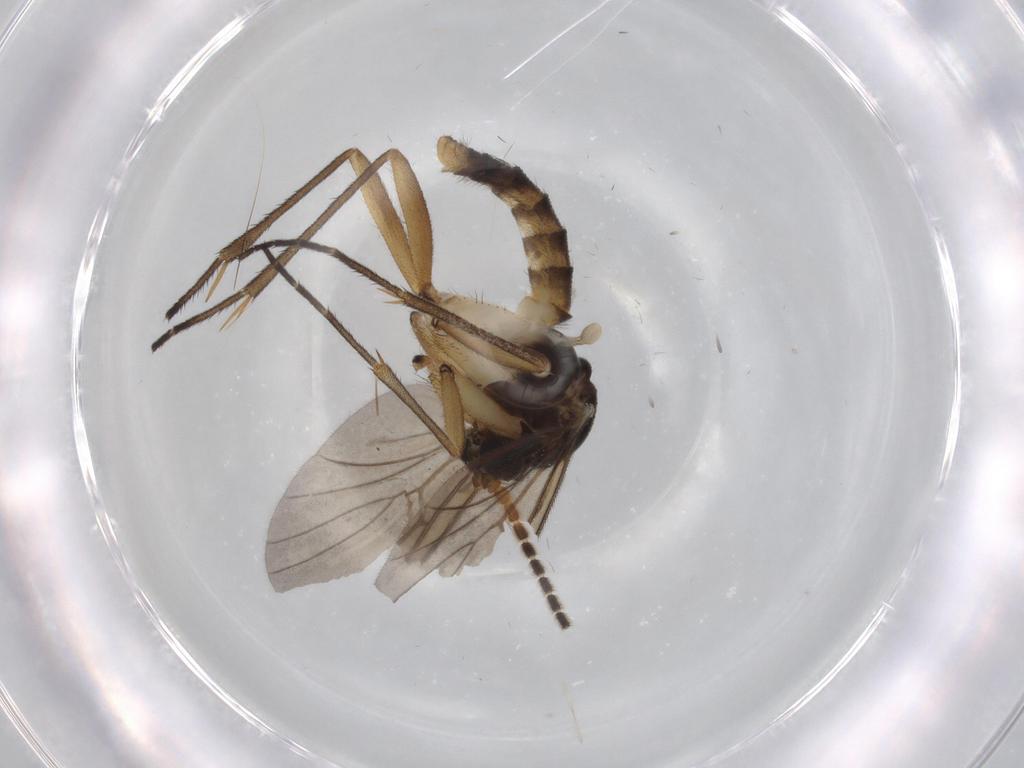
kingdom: Animalia
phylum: Arthropoda
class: Insecta
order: Diptera
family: Mycetophilidae
